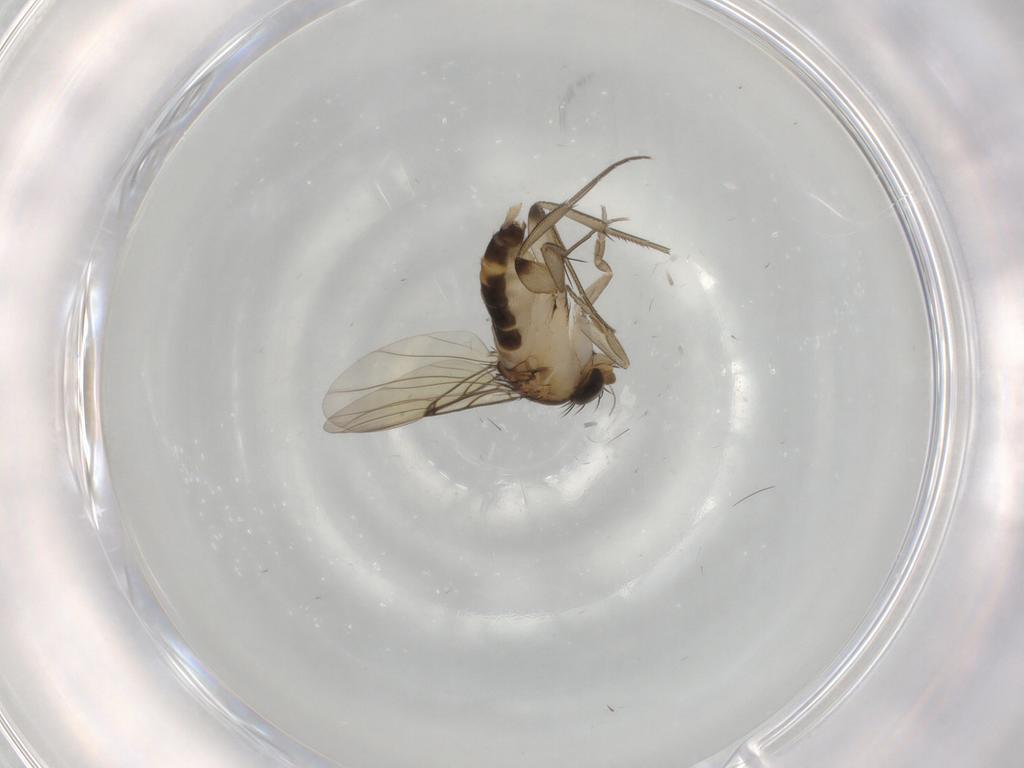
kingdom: Animalia
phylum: Arthropoda
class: Insecta
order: Diptera
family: Phoridae
